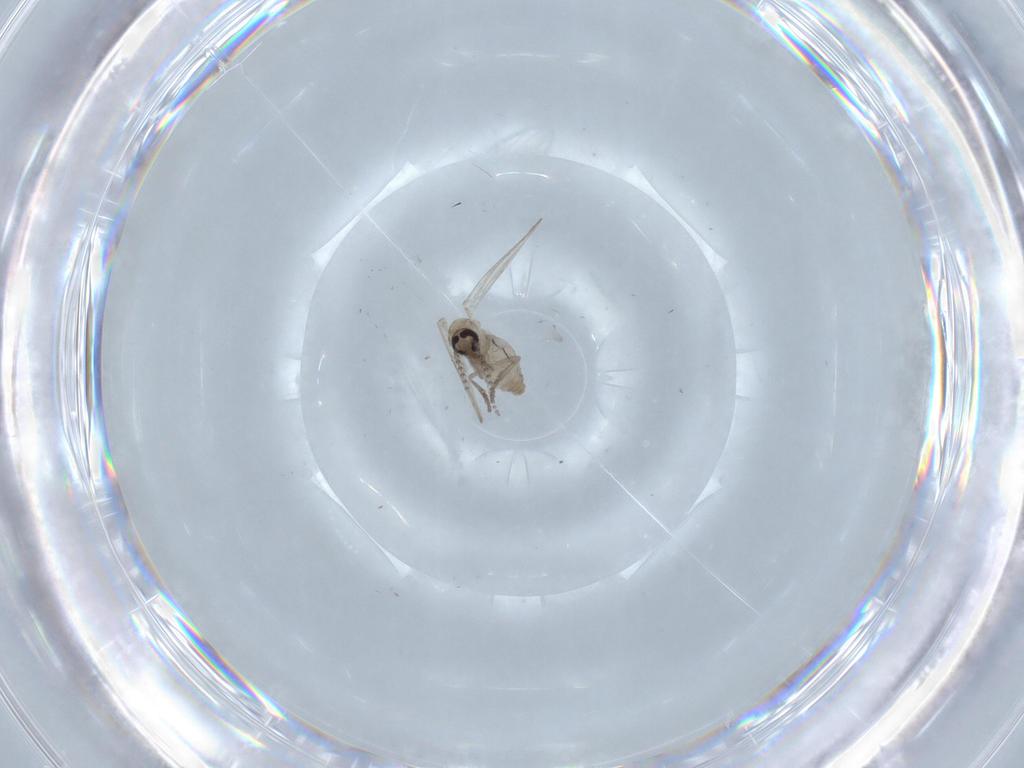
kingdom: Animalia
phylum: Arthropoda
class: Insecta
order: Diptera
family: Psychodidae
